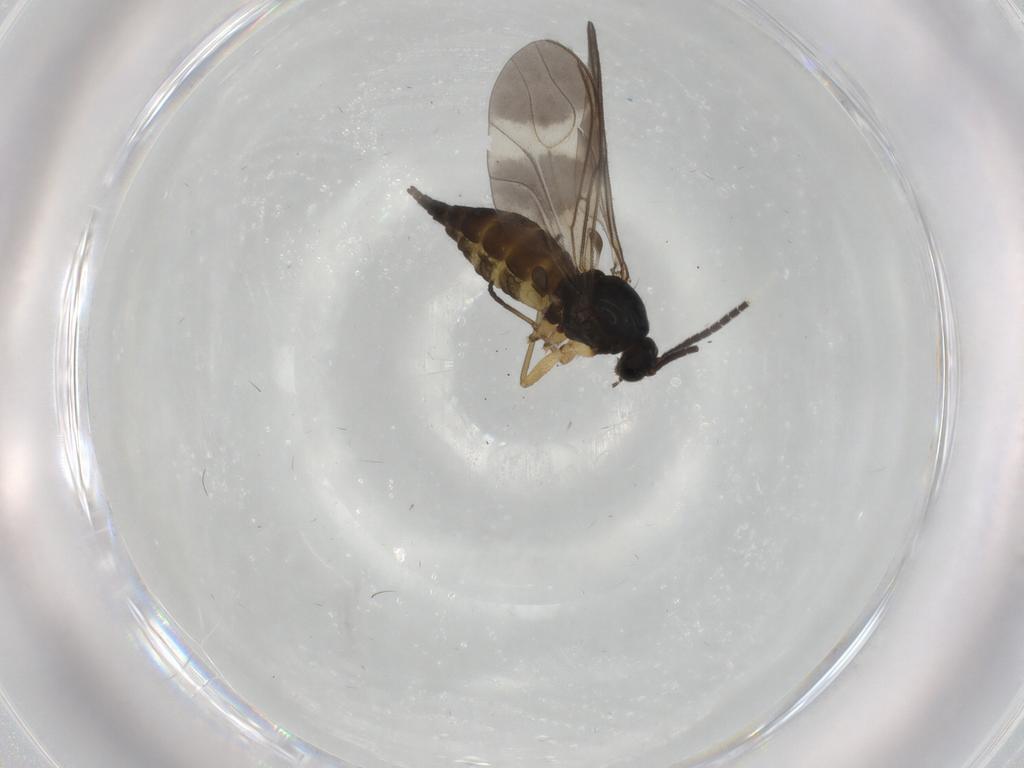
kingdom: Animalia
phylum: Arthropoda
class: Insecta
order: Diptera
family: Sciaridae
